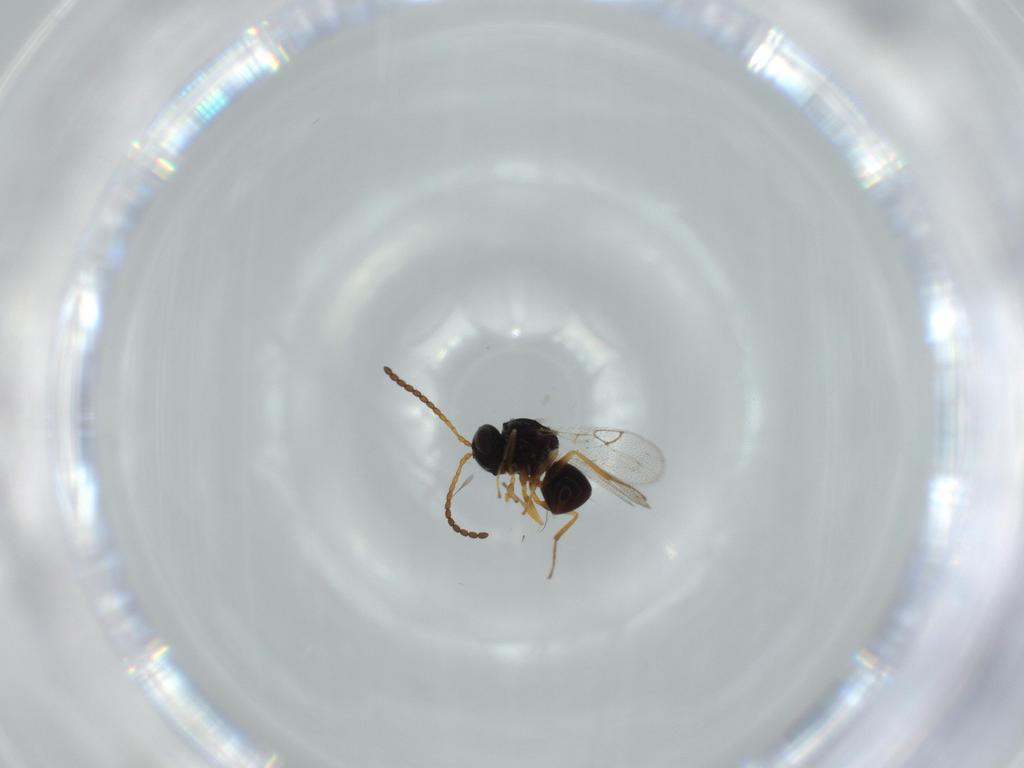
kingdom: Animalia
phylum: Arthropoda
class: Insecta
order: Hymenoptera
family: Figitidae
